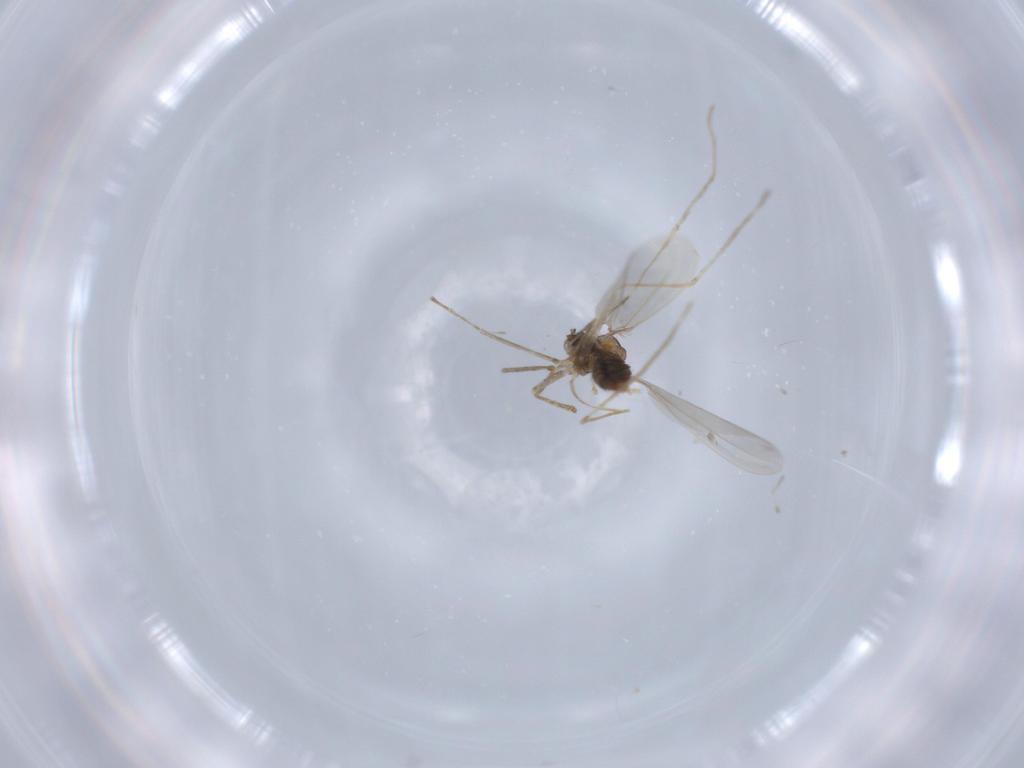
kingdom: Animalia
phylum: Arthropoda
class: Insecta
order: Diptera
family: Cecidomyiidae
